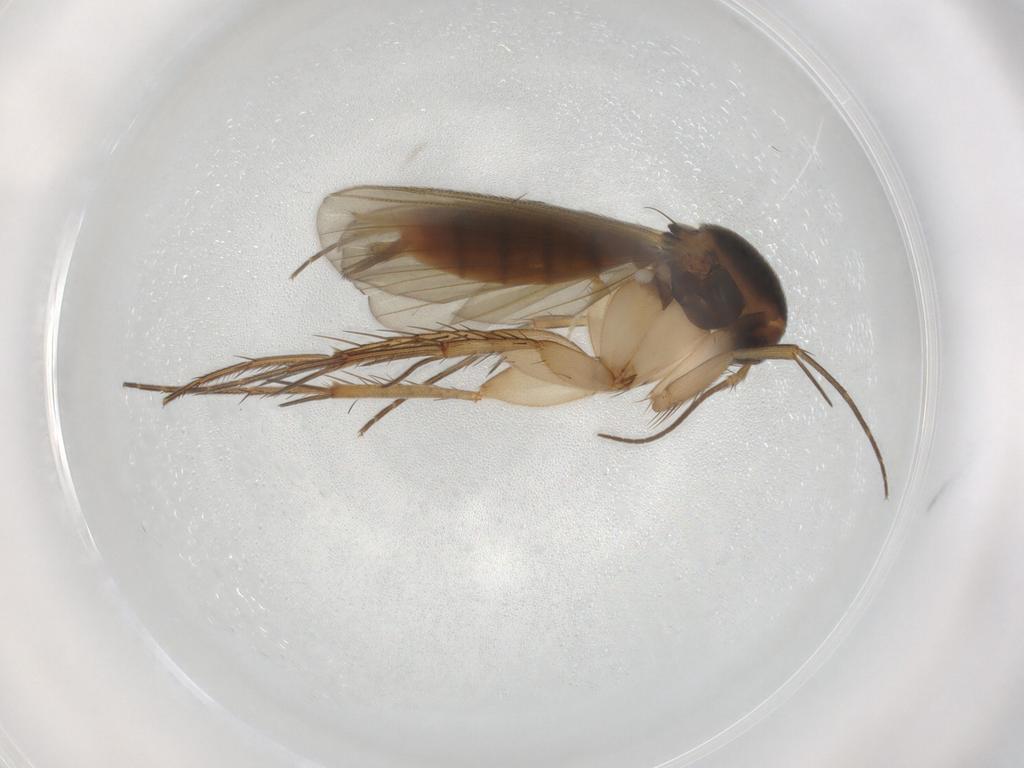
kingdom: Animalia
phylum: Arthropoda
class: Insecta
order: Diptera
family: Mycetophilidae
